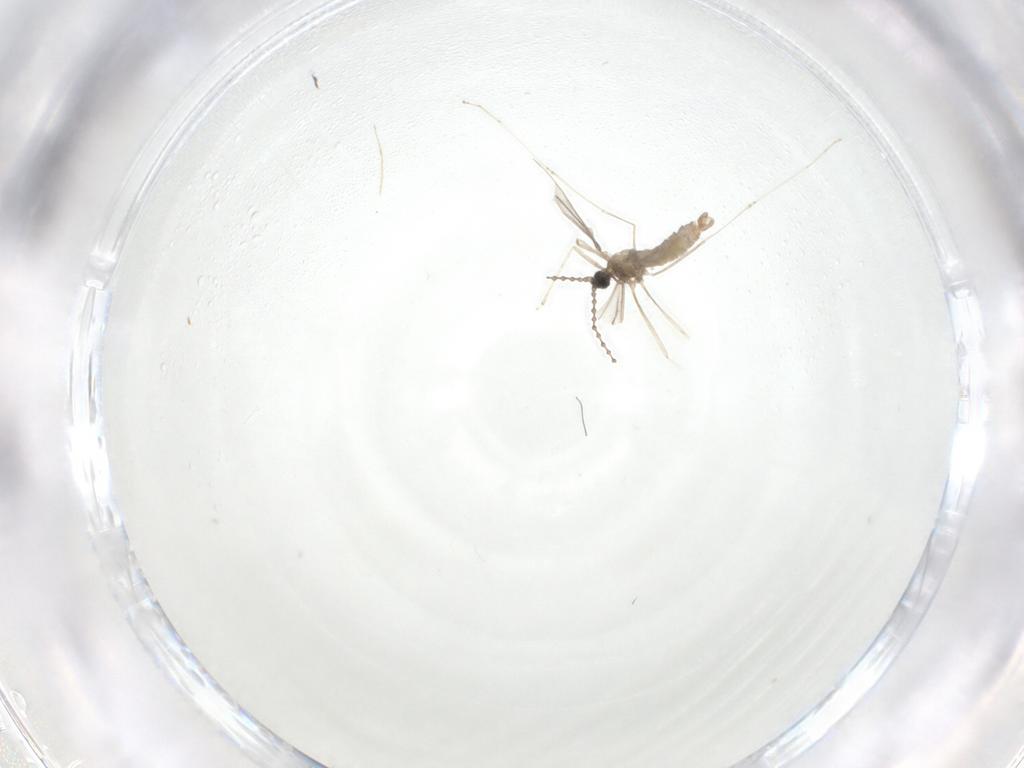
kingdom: Animalia
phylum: Arthropoda
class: Insecta
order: Diptera
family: Cecidomyiidae
